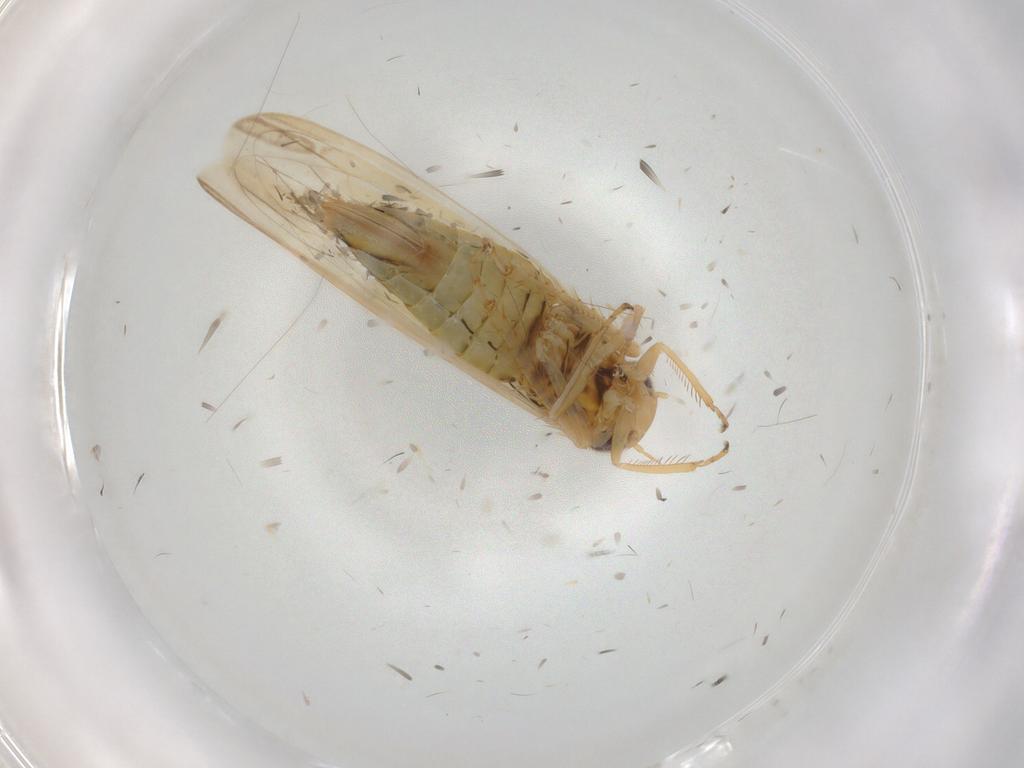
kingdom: Animalia
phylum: Arthropoda
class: Insecta
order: Hemiptera
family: Cicadellidae
